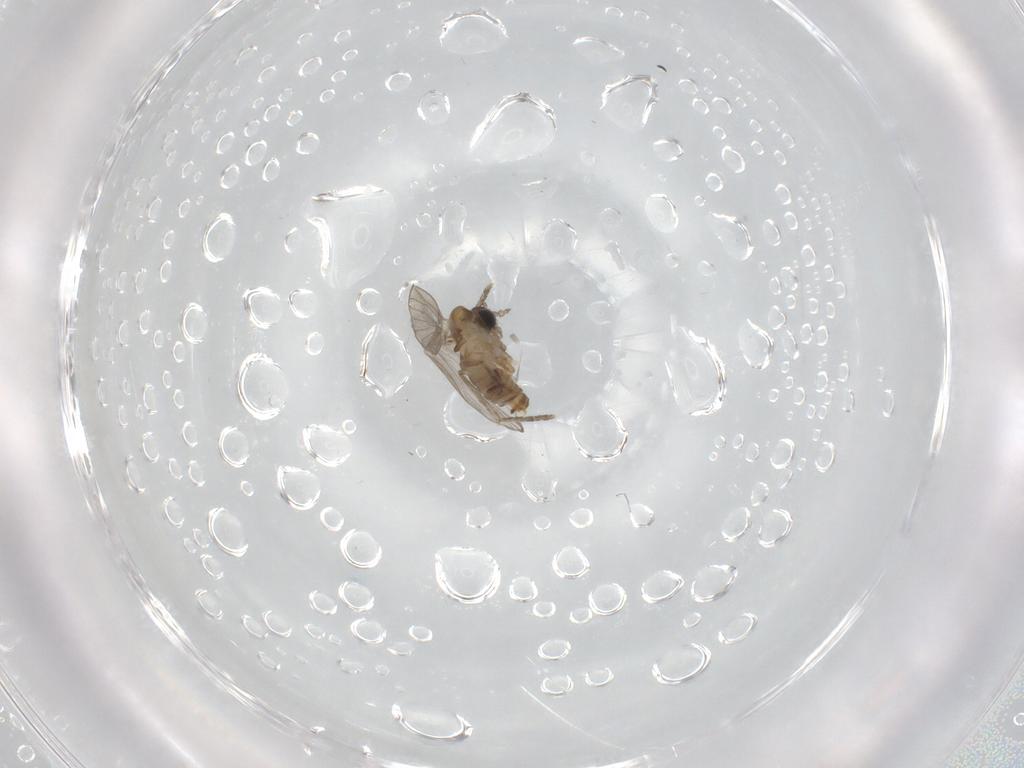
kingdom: Animalia
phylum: Arthropoda
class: Insecta
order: Diptera
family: Psychodidae
